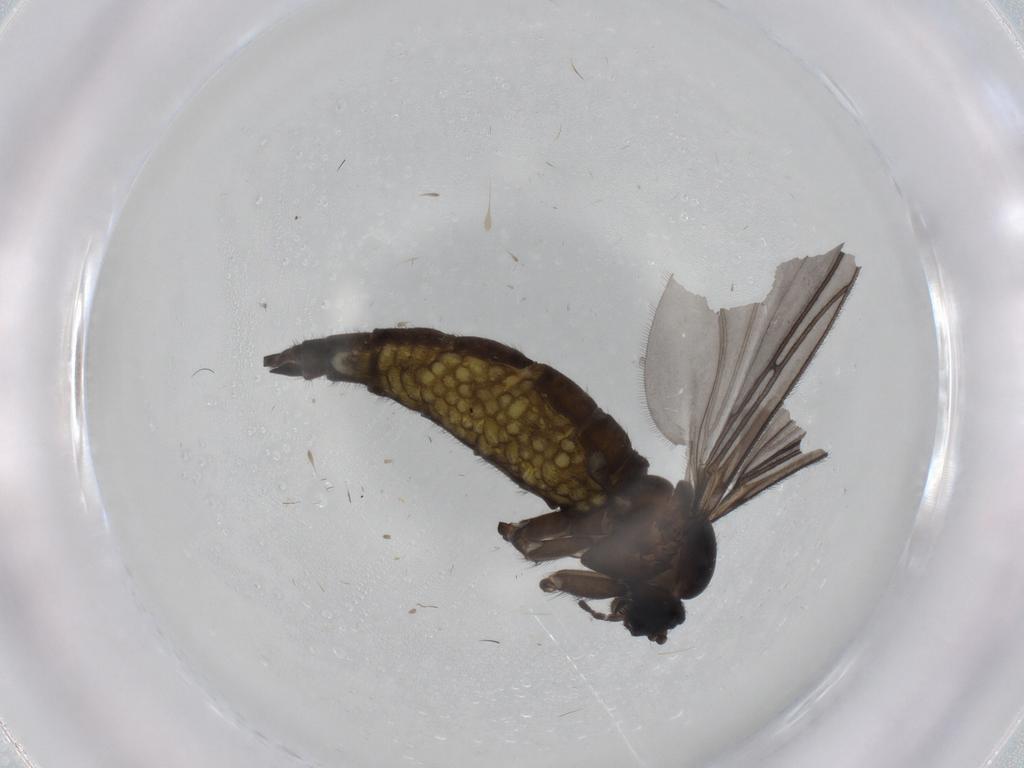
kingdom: Animalia
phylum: Arthropoda
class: Insecta
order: Diptera
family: Sciaridae
